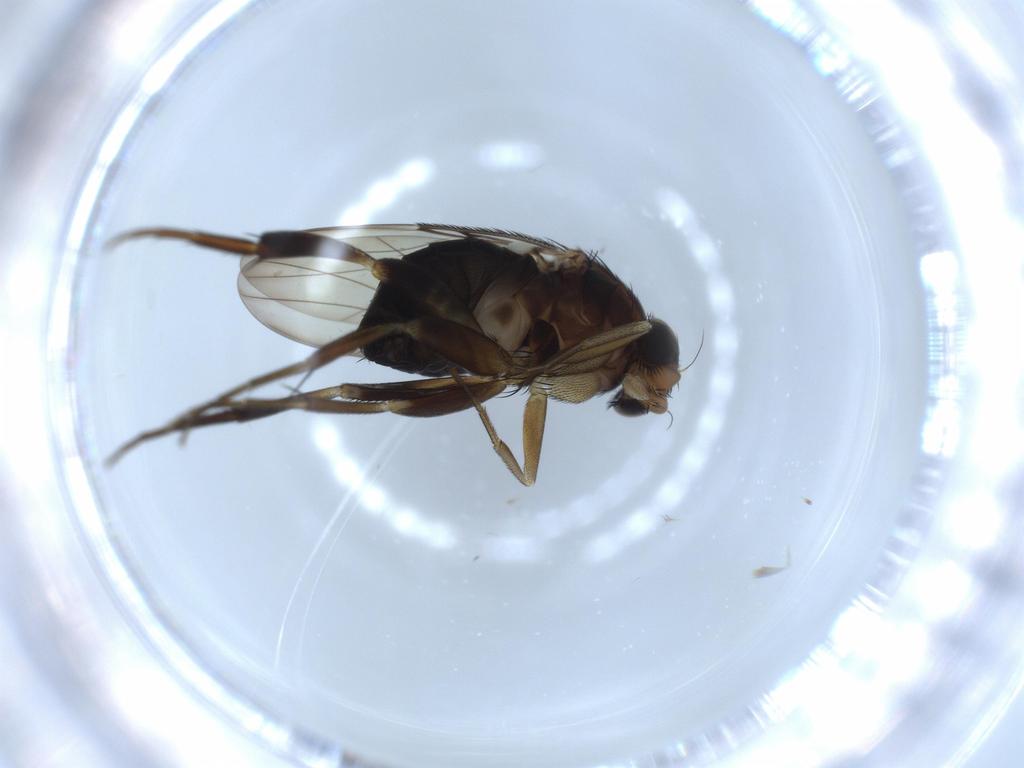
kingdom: Animalia
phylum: Arthropoda
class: Insecta
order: Diptera
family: Phoridae
